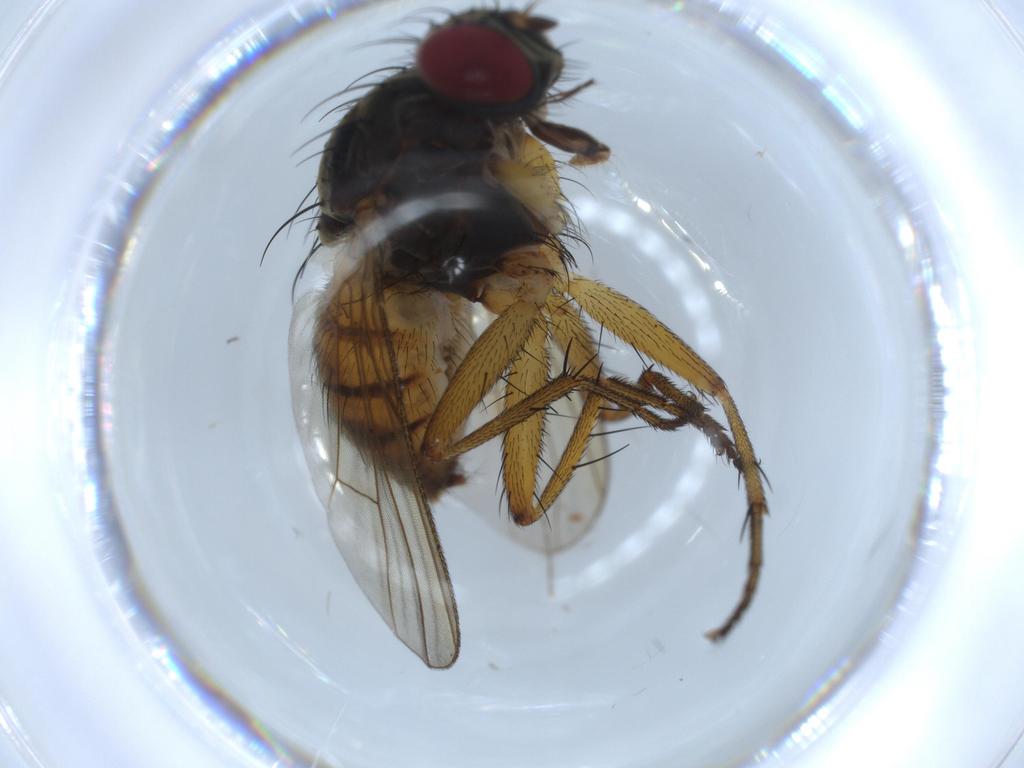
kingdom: Animalia
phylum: Arthropoda
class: Insecta
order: Diptera
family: Muscidae
